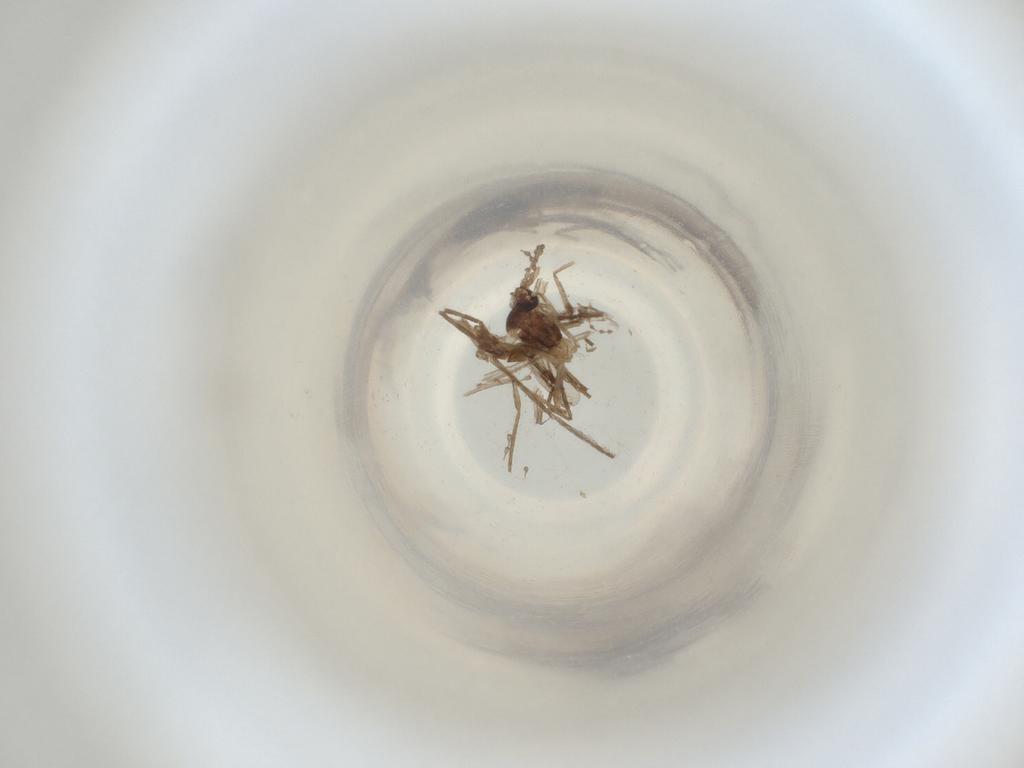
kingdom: Animalia
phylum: Arthropoda
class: Insecta
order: Diptera
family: Cecidomyiidae
